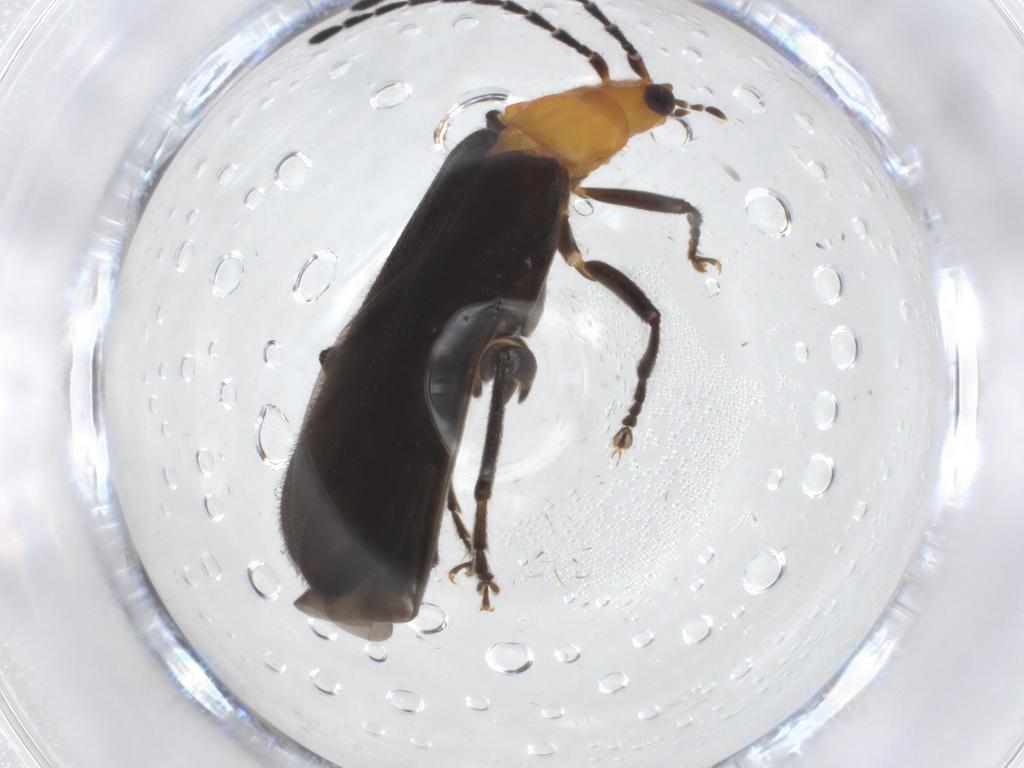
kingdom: Animalia
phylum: Arthropoda
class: Insecta
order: Coleoptera
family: Cantharidae
